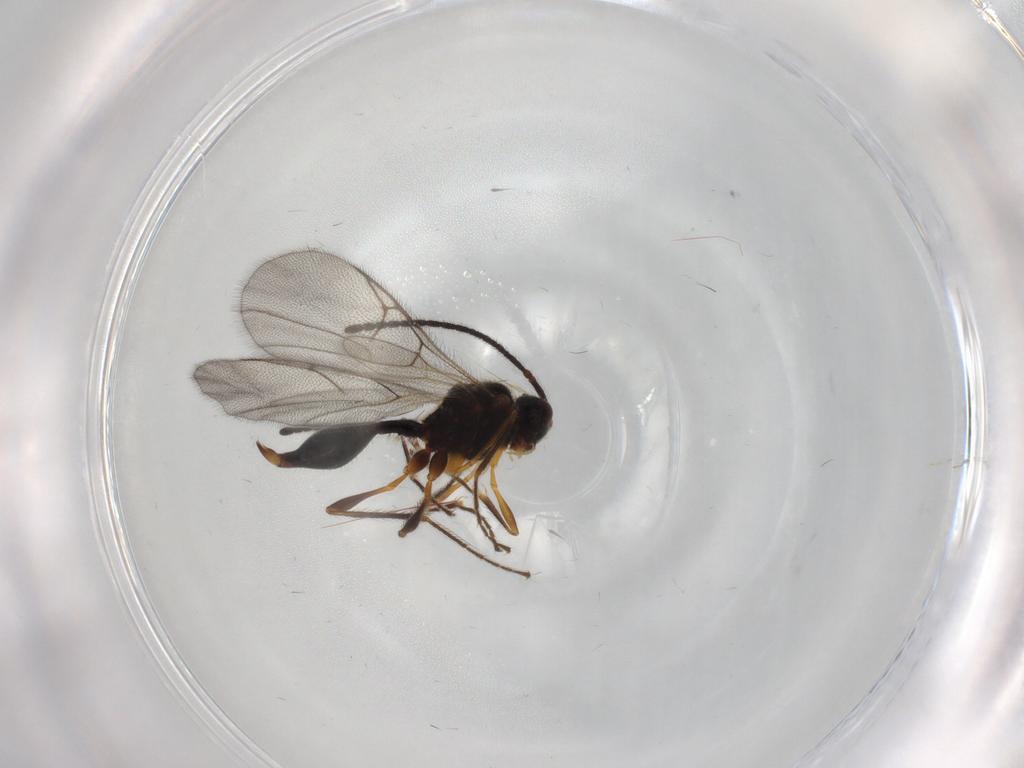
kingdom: Animalia
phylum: Arthropoda
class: Insecta
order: Hymenoptera
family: Diapriidae
